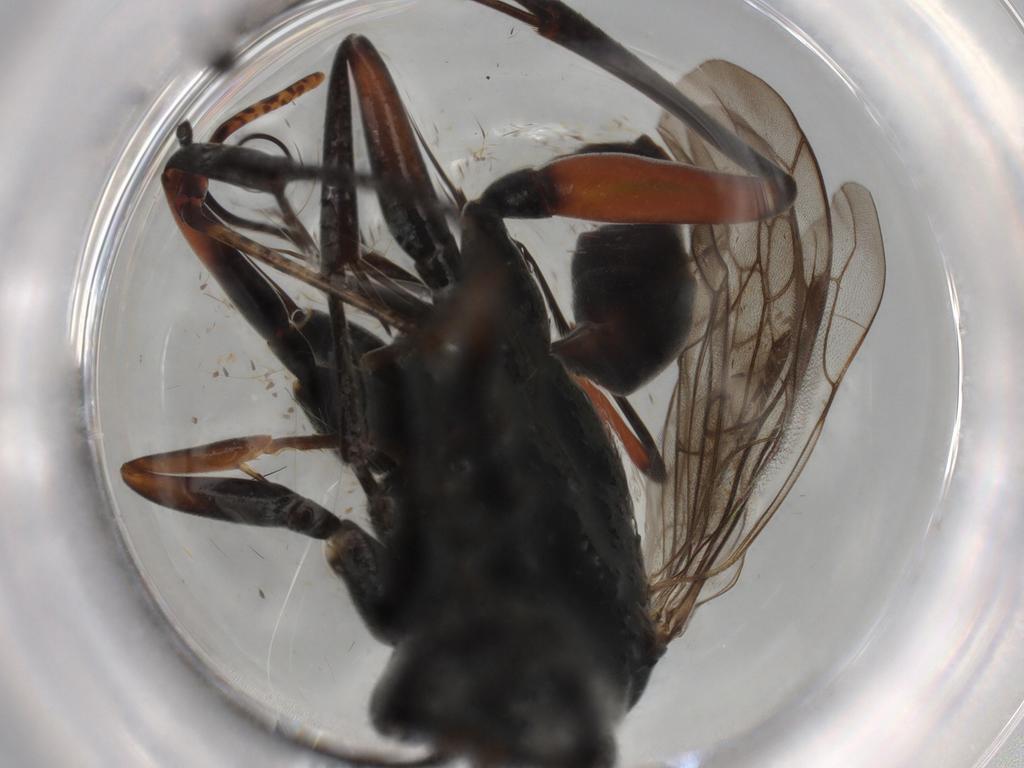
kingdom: Animalia
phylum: Arthropoda
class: Insecta
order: Hymenoptera
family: Pompilidae
